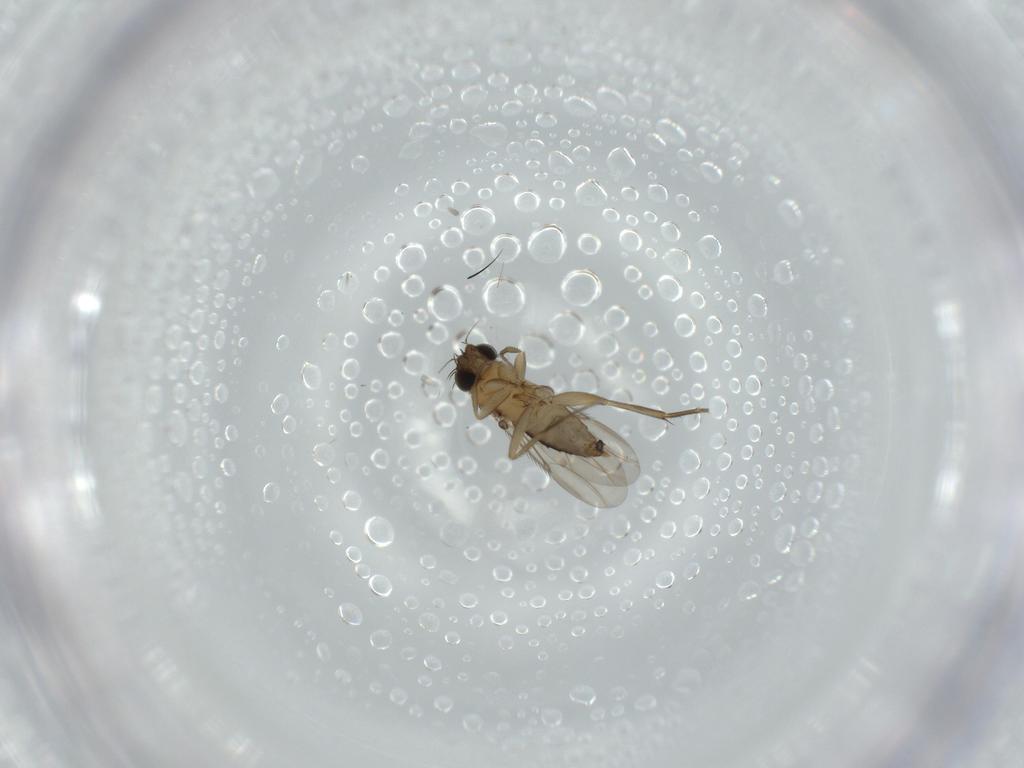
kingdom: Animalia
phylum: Arthropoda
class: Insecta
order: Diptera
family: Phoridae
